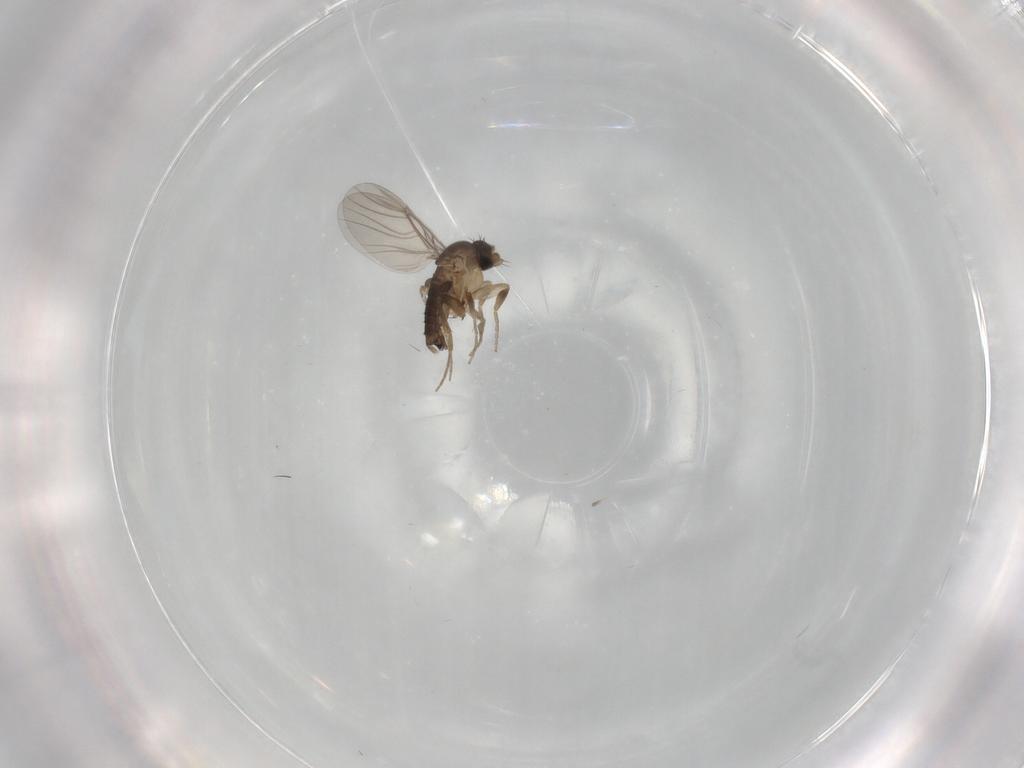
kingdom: Animalia
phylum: Arthropoda
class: Insecta
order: Diptera
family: Phoridae
